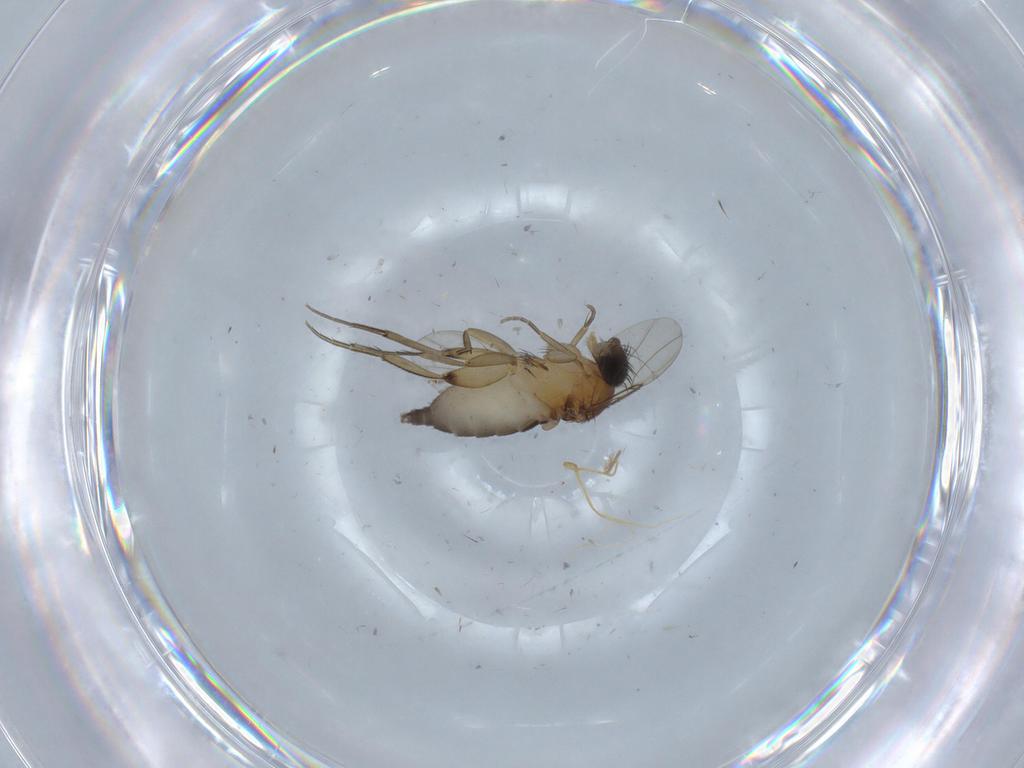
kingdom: Animalia
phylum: Arthropoda
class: Insecta
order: Diptera
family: Phoridae
